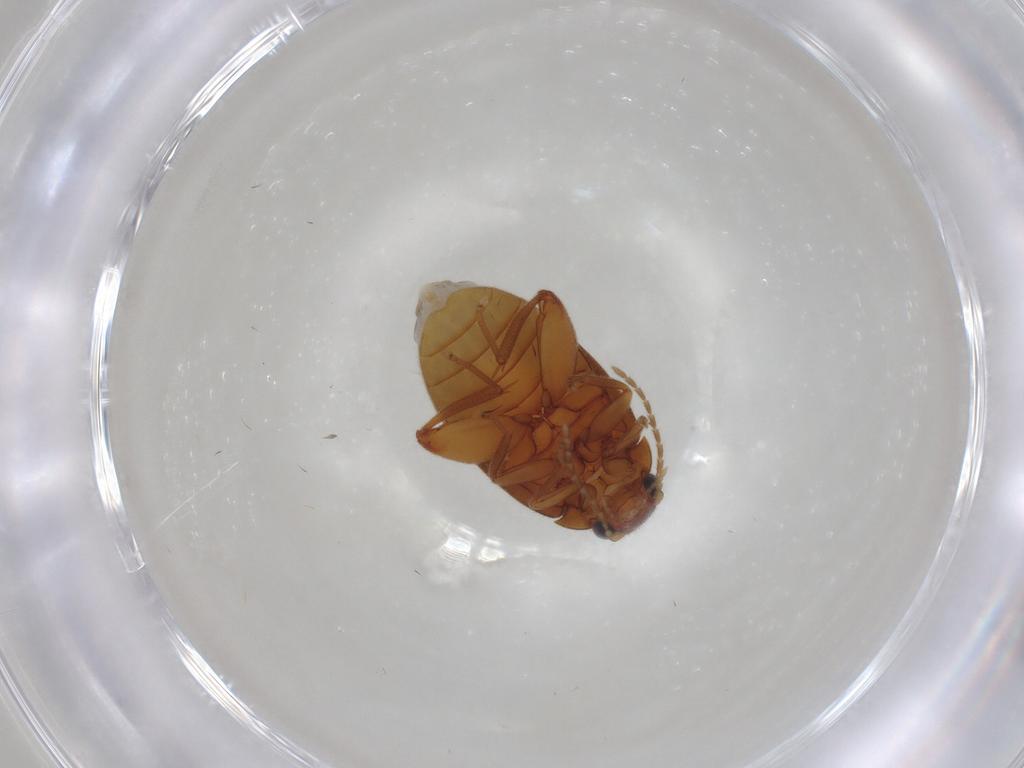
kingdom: Animalia
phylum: Arthropoda
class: Insecta
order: Coleoptera
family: Scirtidae
